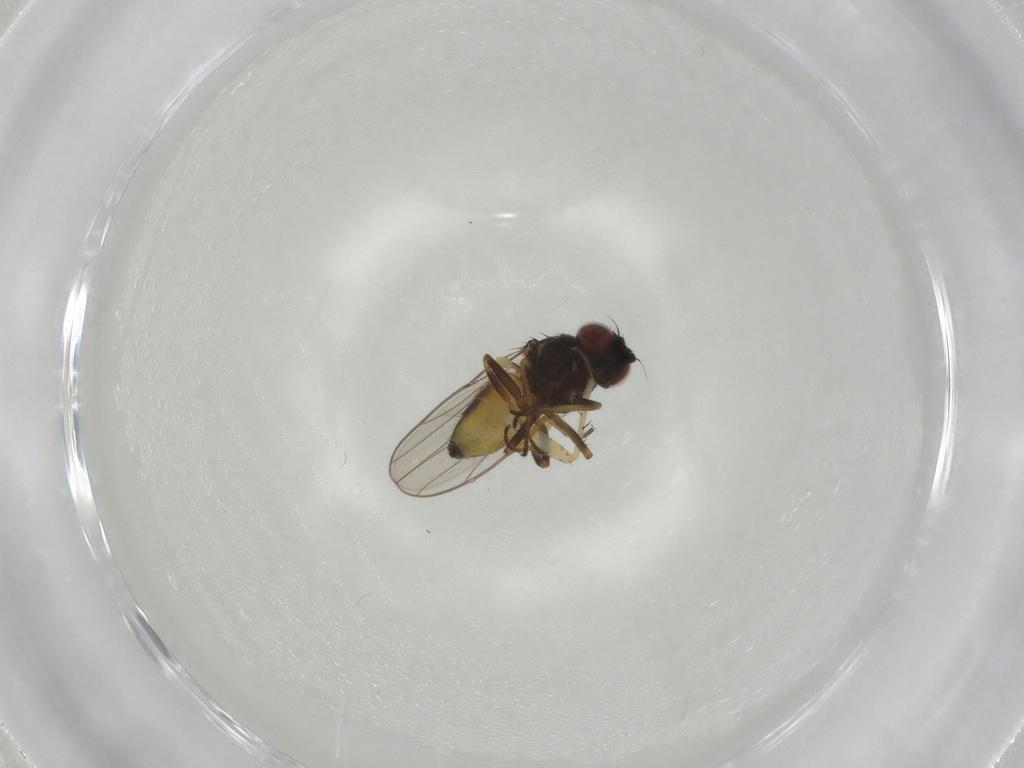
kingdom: Animalia
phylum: Arthropoda
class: Insecta
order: Diptera
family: Chloropidae
